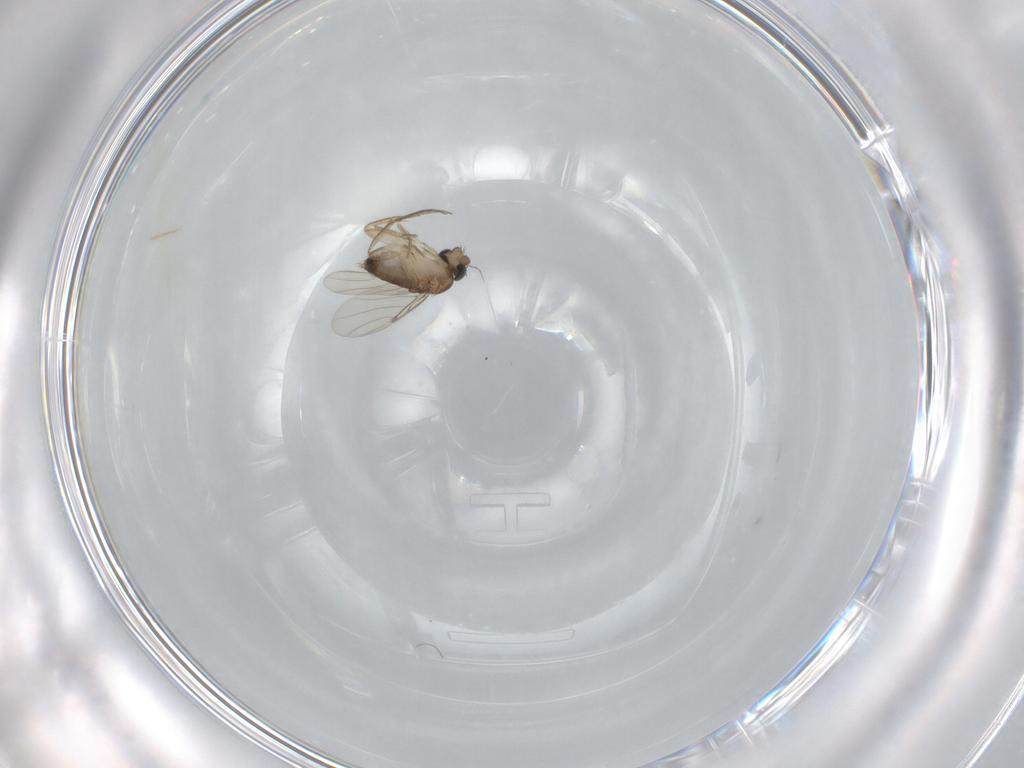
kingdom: Animalia
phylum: Arthropoda
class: Insecta
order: Diptera
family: Phoridae
